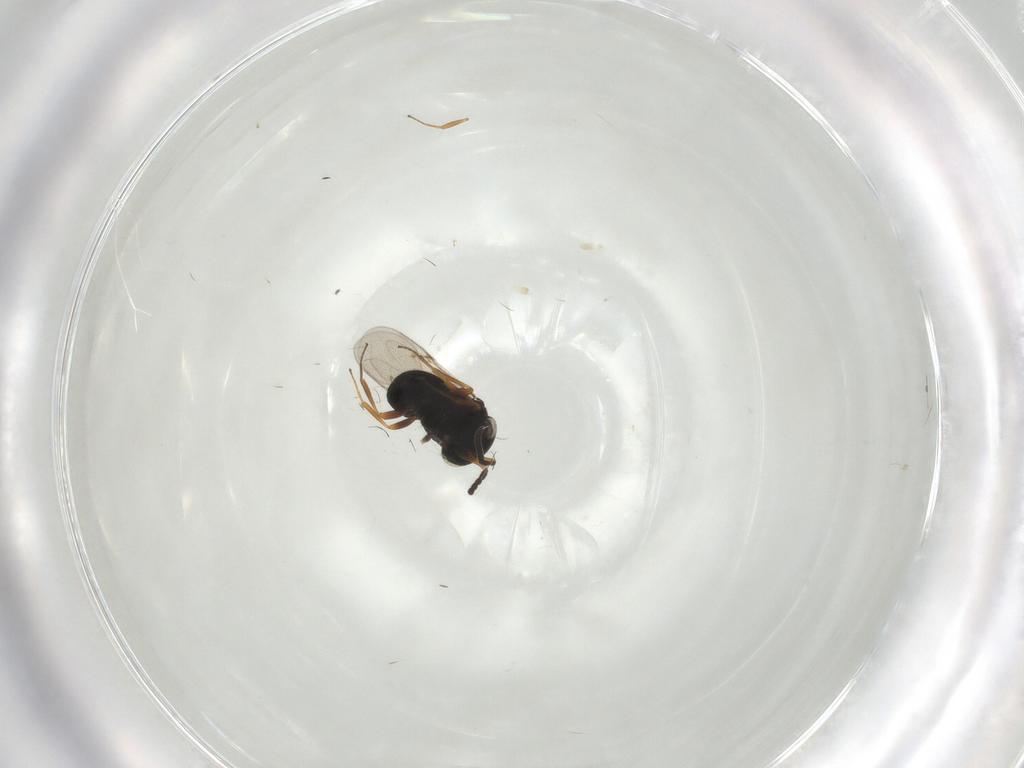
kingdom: Animalia
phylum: Arthropoda
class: Insecta
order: Hymenoptera
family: Scelionidae
